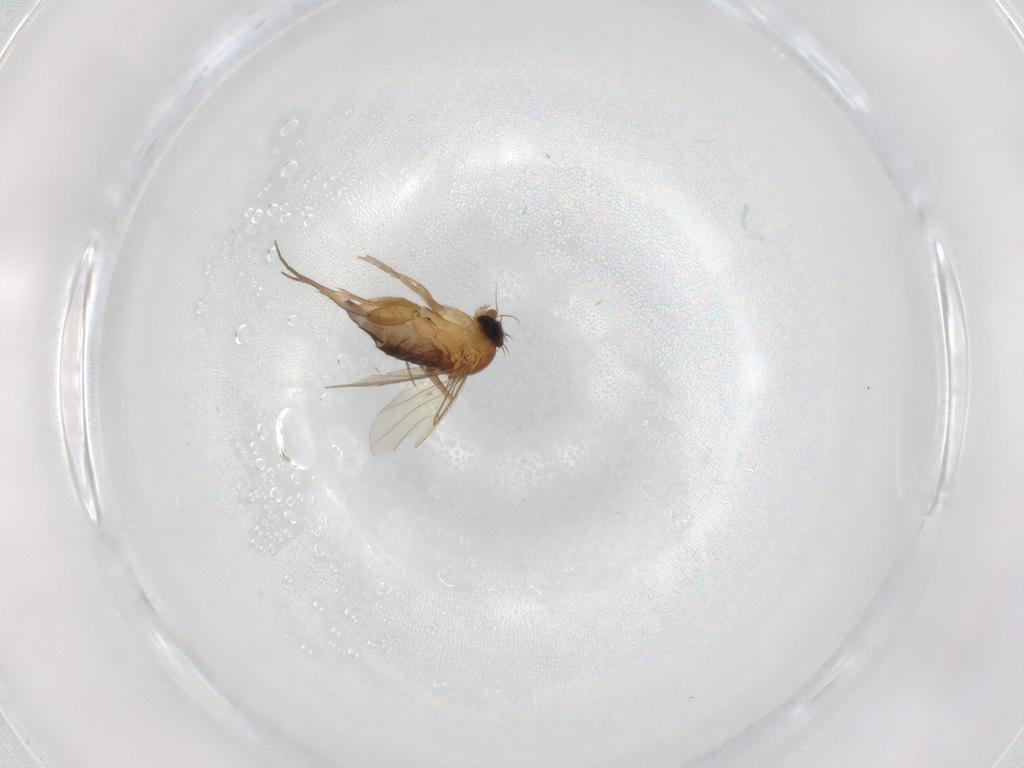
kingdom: Animalia
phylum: Arthropoda
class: Insecta
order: Diptera
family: Phoridae
